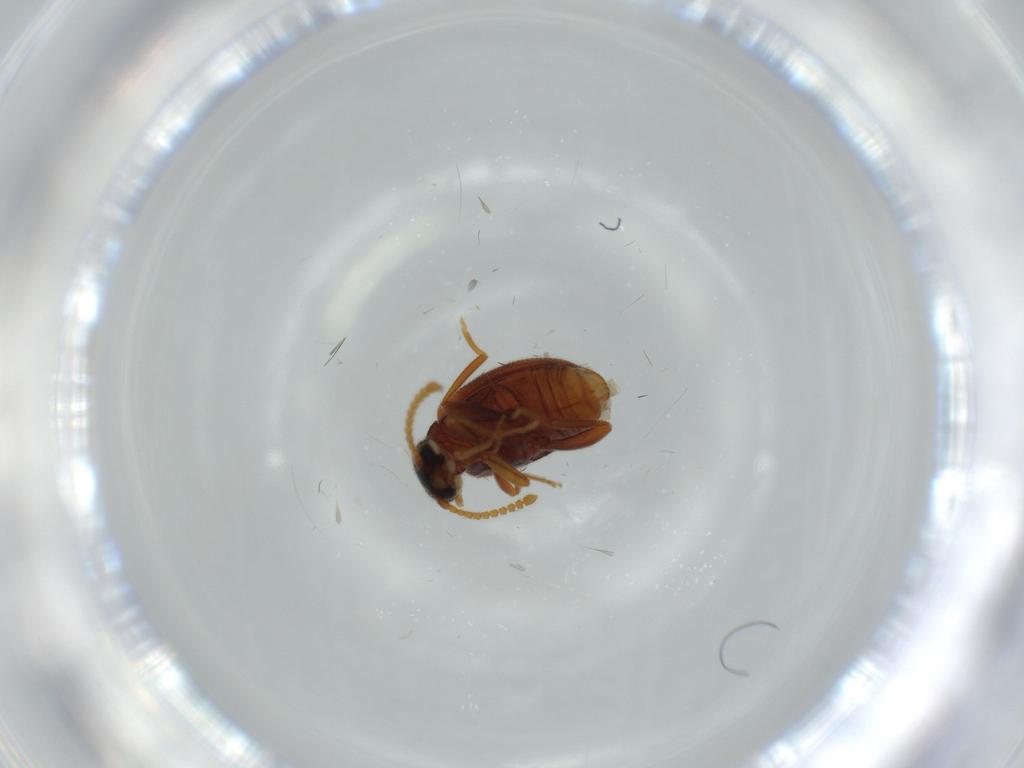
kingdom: Animalia
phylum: Arthropoda
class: Insecta
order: Coleoptera
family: Aderidae
